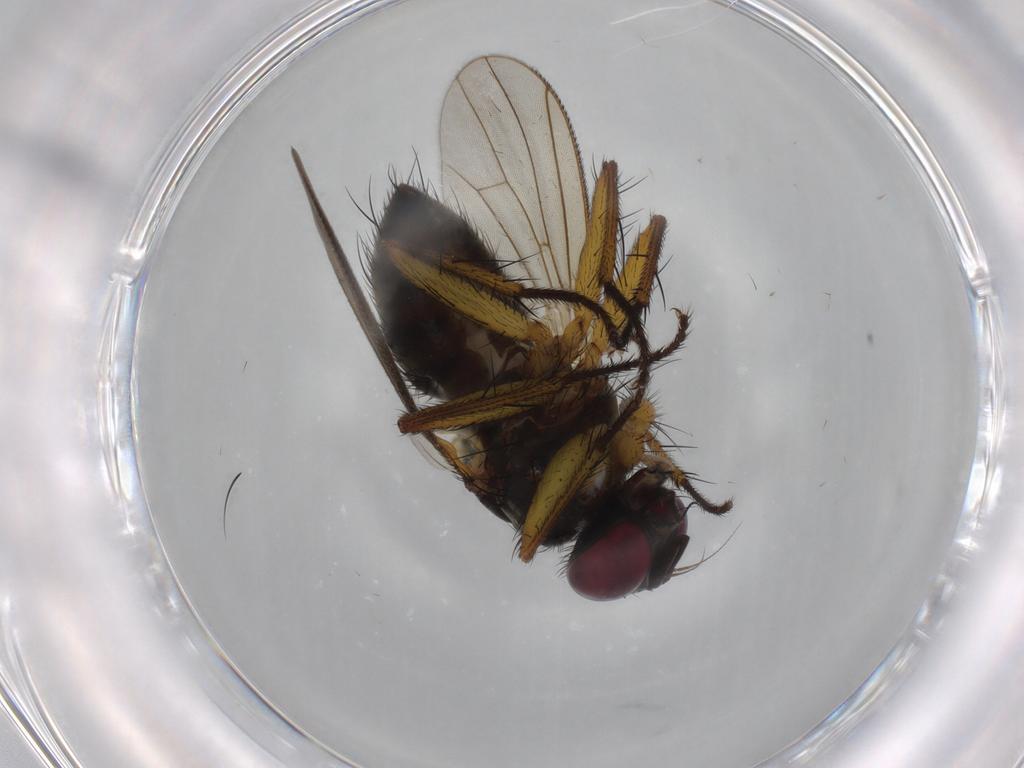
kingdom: Animalia
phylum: Arthropoda
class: Insecta
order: Diptera
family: Muscidae
